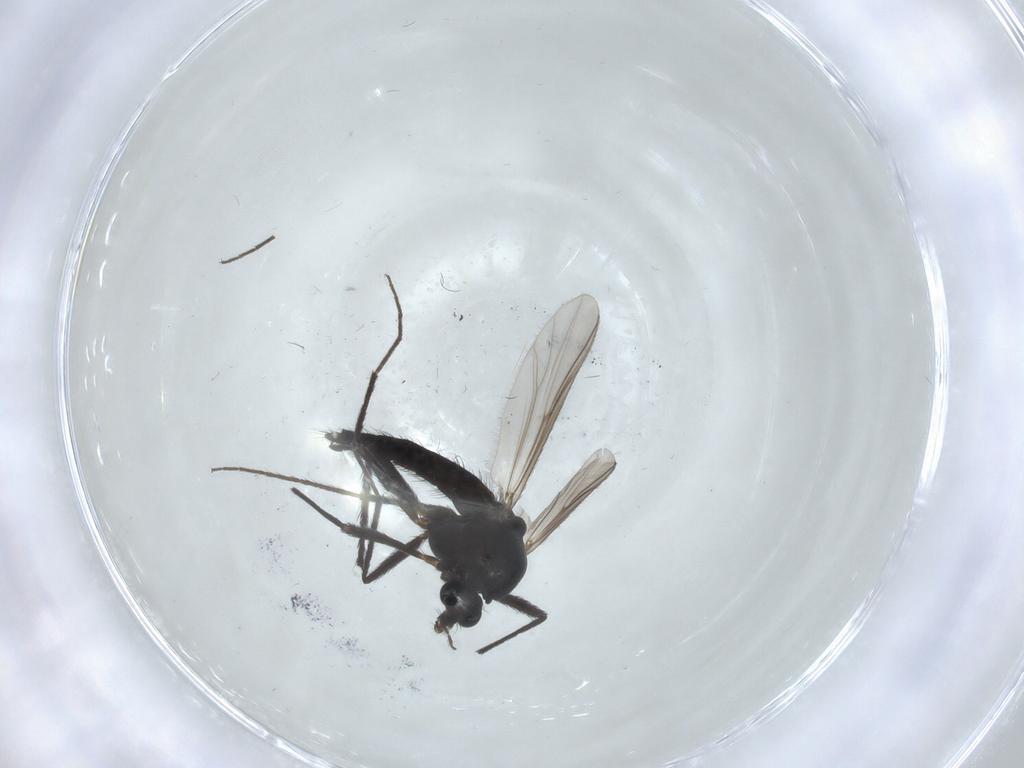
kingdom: Animalia
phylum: Arthropoda
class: Insecta
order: Diptera
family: Chironomidae
